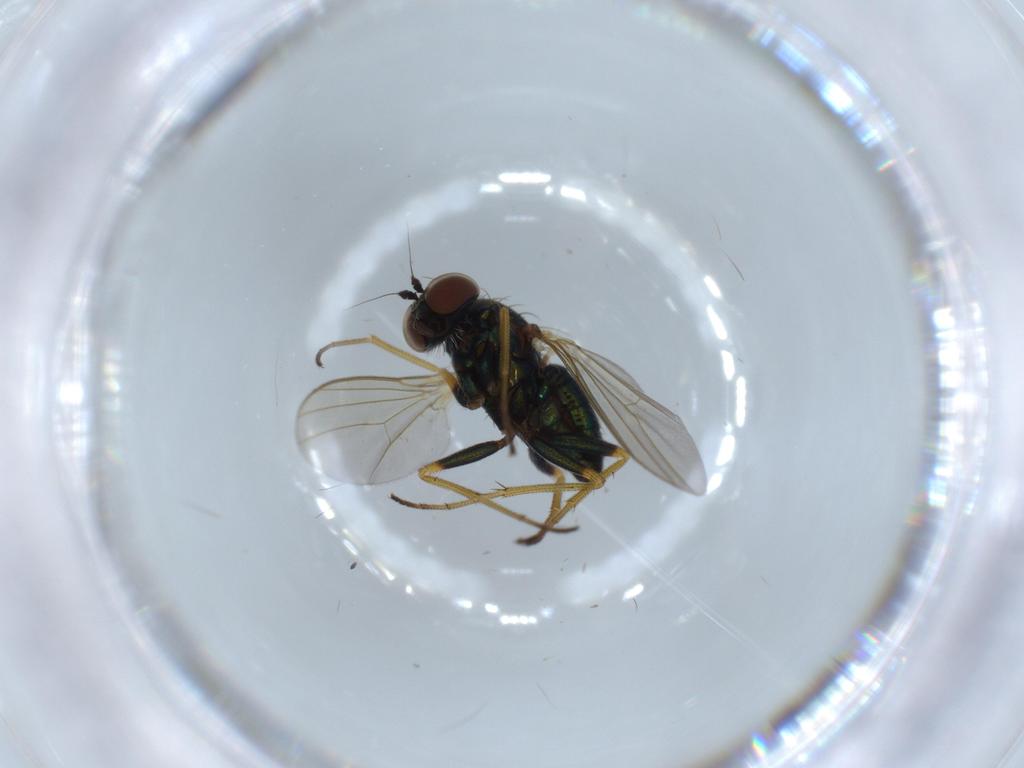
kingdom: Animalia
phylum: Arthropoda
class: Insecta
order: Diptera
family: Dolichopodidae
